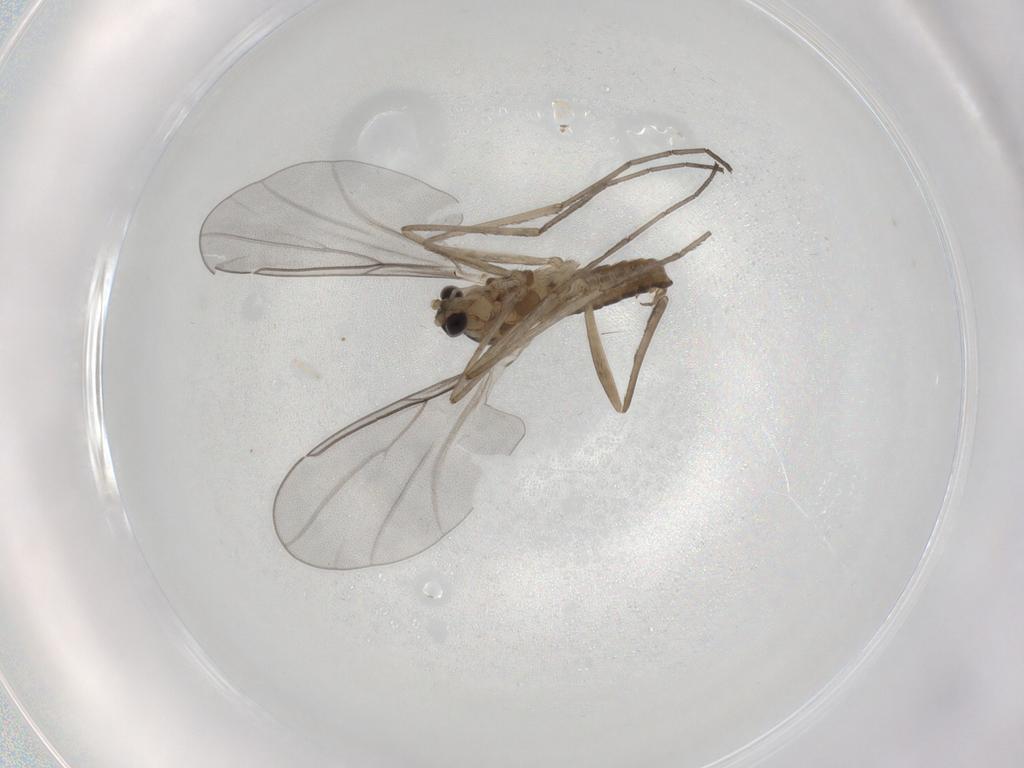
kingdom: Animalia
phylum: Arthropoda
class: Insecta
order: Diptera
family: Cecidomyiidae
